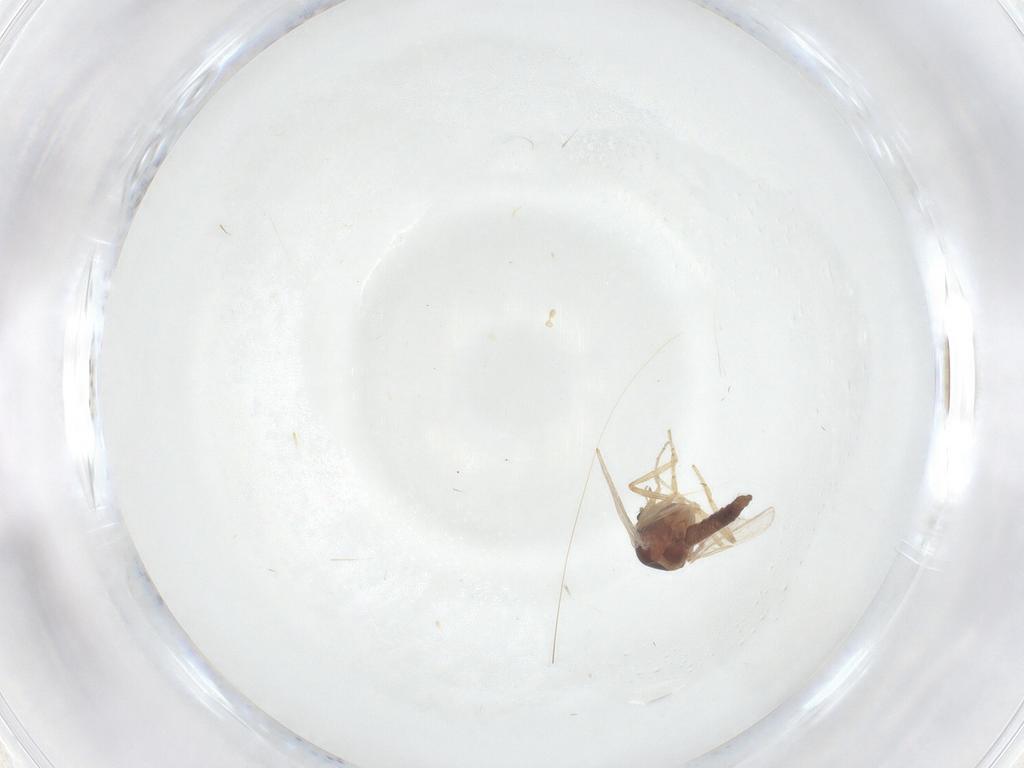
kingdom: Animalia
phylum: Arthropoda
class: Insecta
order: Diptera
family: Ceratopogonidae
